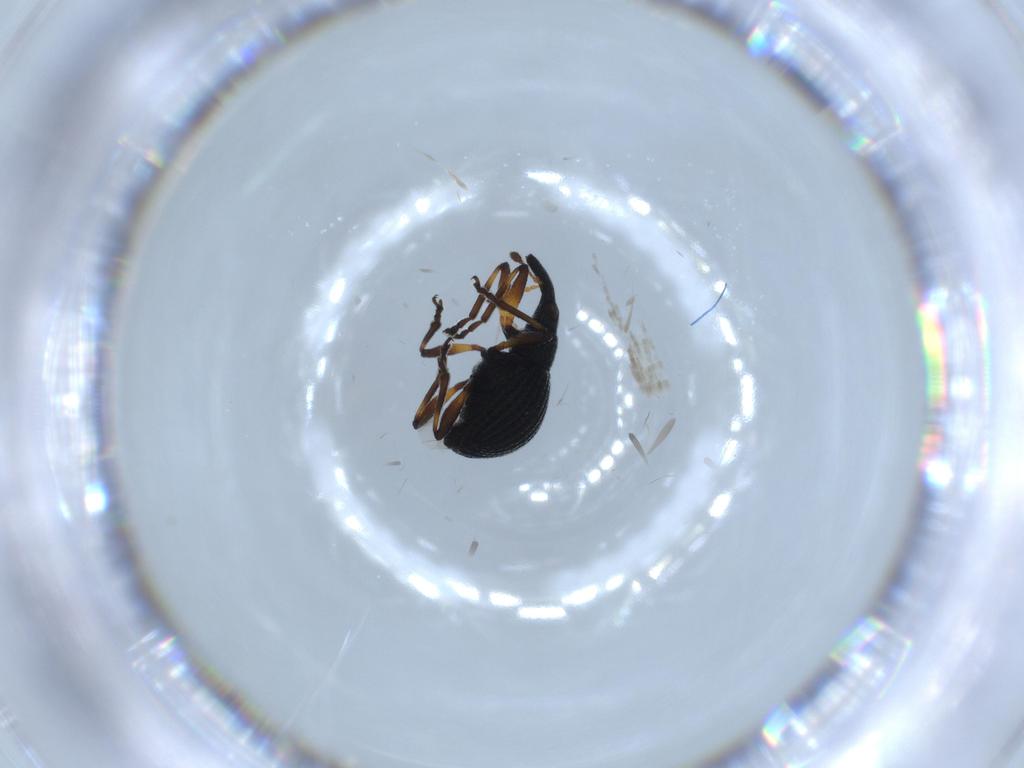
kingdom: Animalia
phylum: Arthropoda
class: Insecta
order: Coleoptera
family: Brentidae
